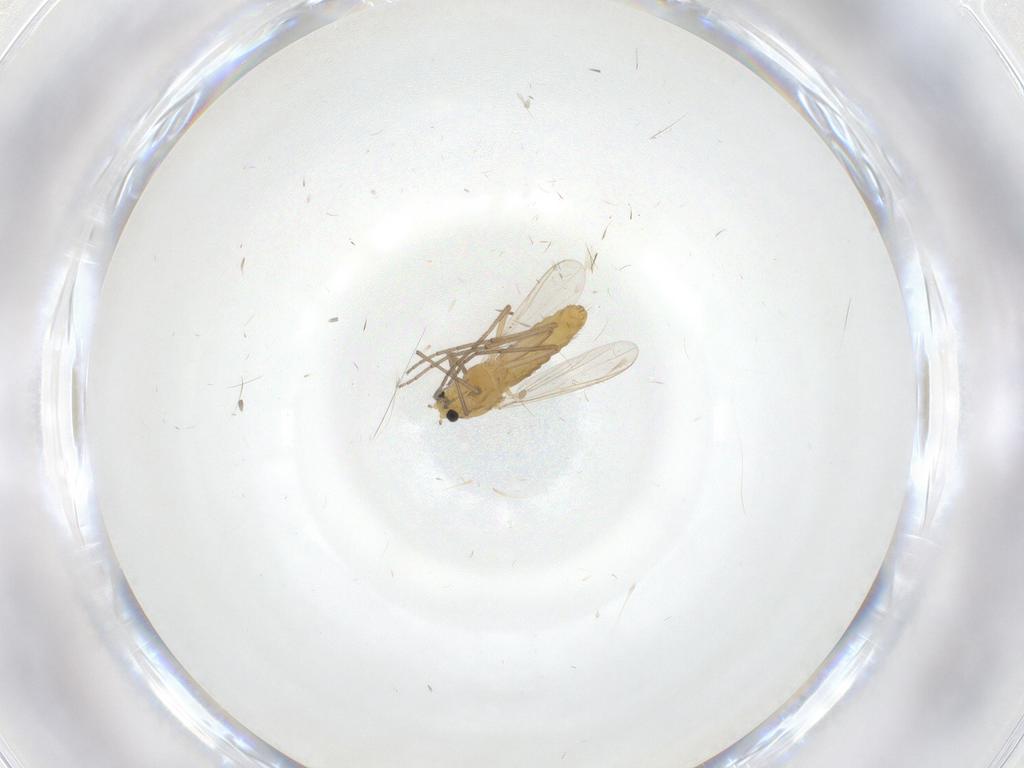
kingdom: Animalia
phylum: Arthropoda
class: Insecta
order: Diptera
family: Chironomidae
